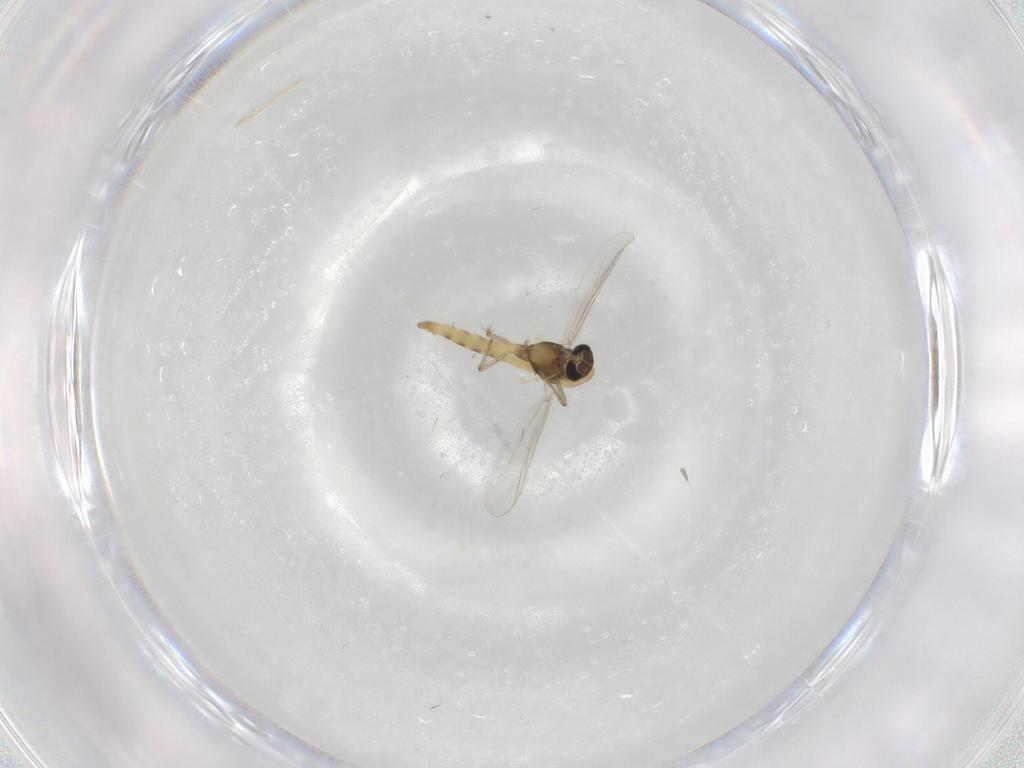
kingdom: Animalia
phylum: Arthropoda
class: Insecta
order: Diptera
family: Chironomidae
